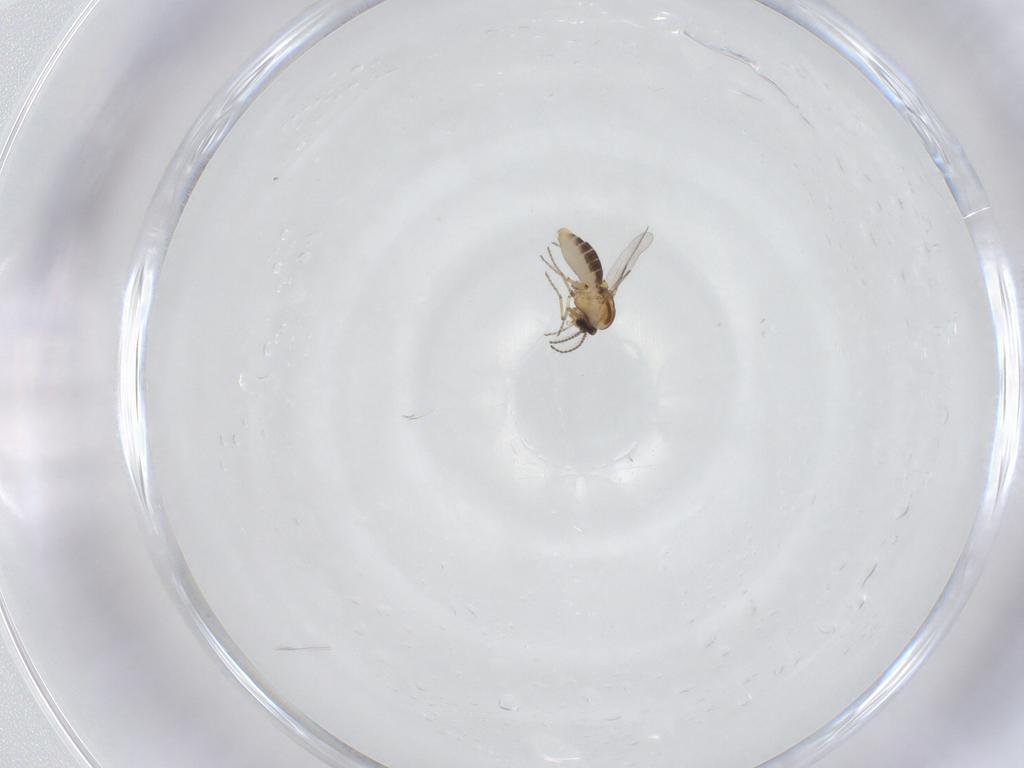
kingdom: Animalia
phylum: Arthropoda
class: Insecta
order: Diptera
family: Ceratopogonidae
